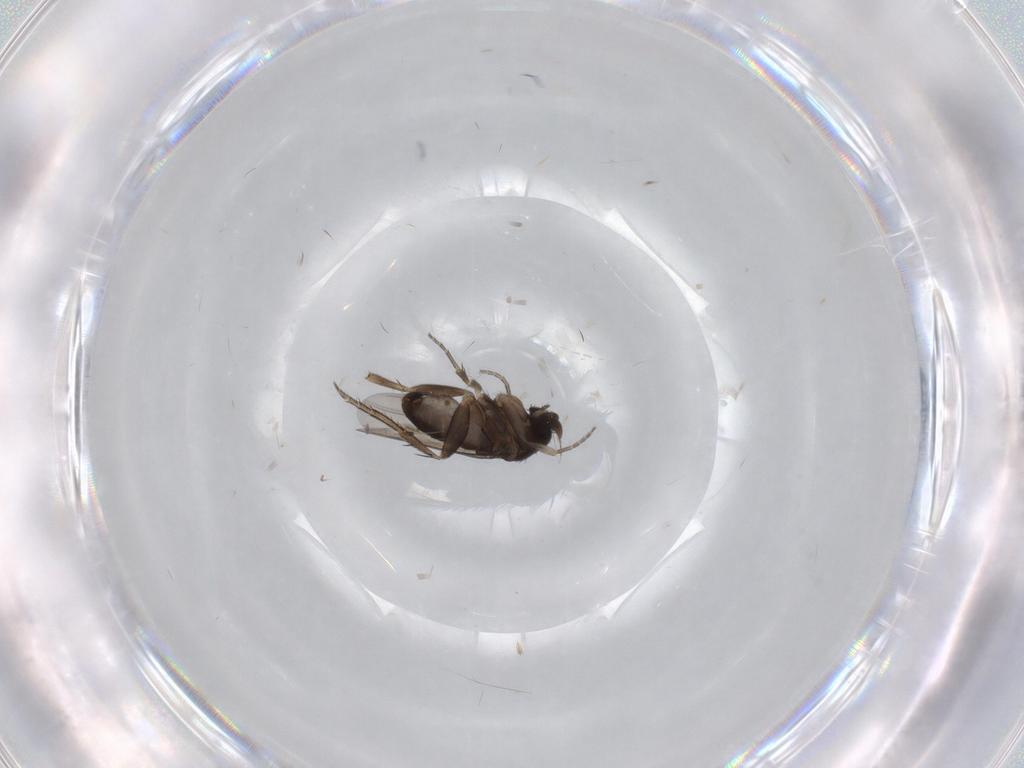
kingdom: Animalia
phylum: Arthropoda
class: Insecta
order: Diptera
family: Phoridae
